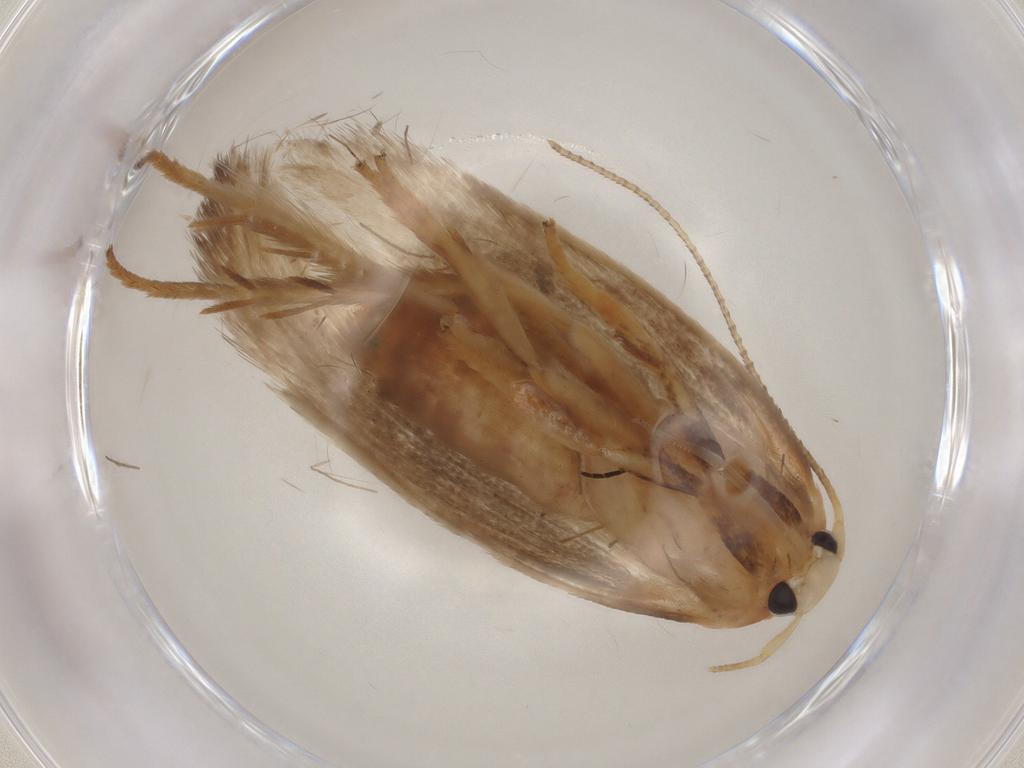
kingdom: Animalia
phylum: Arthropoda
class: Insecta
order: Lepidoptera
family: Geometridae
